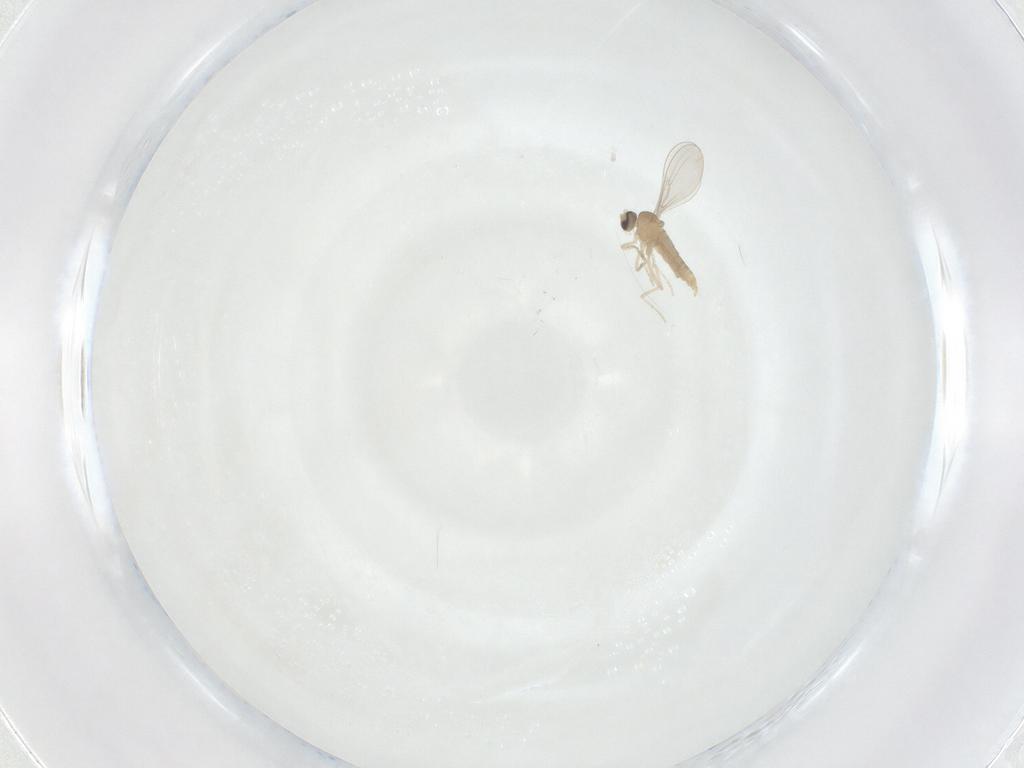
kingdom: Animalia
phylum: Arthropoda
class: Insecta
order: Diptera
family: Cecidomyiidae
